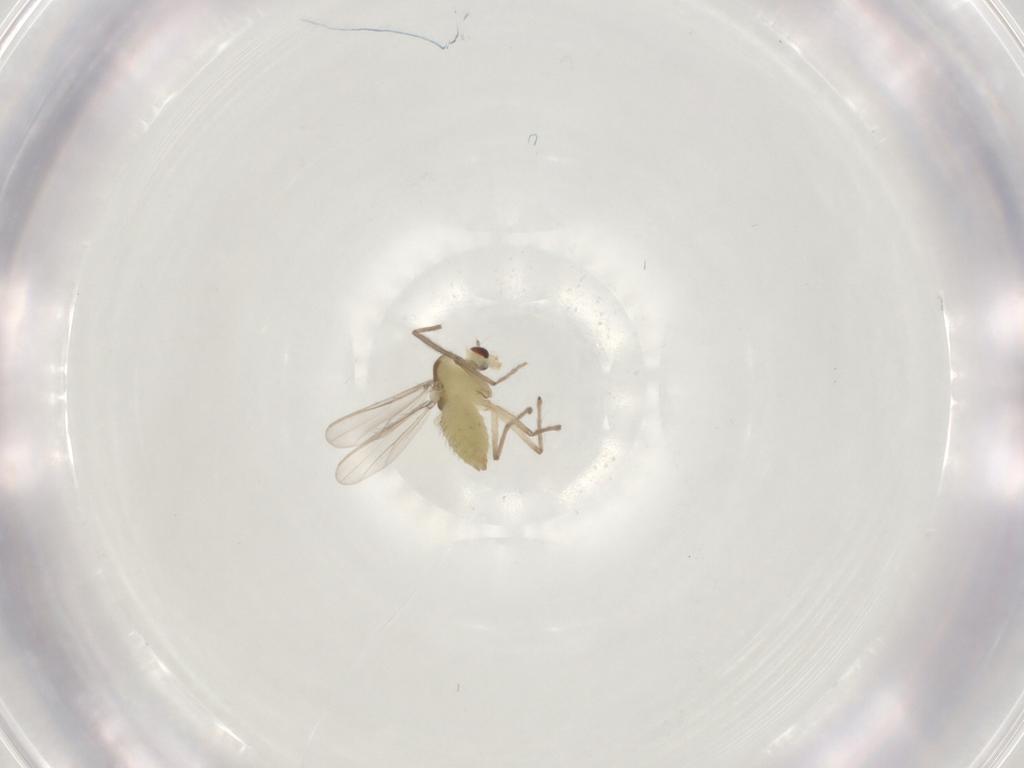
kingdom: Animalia
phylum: Arthropoda
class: Insecta
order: Diptera
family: Chironomidae
